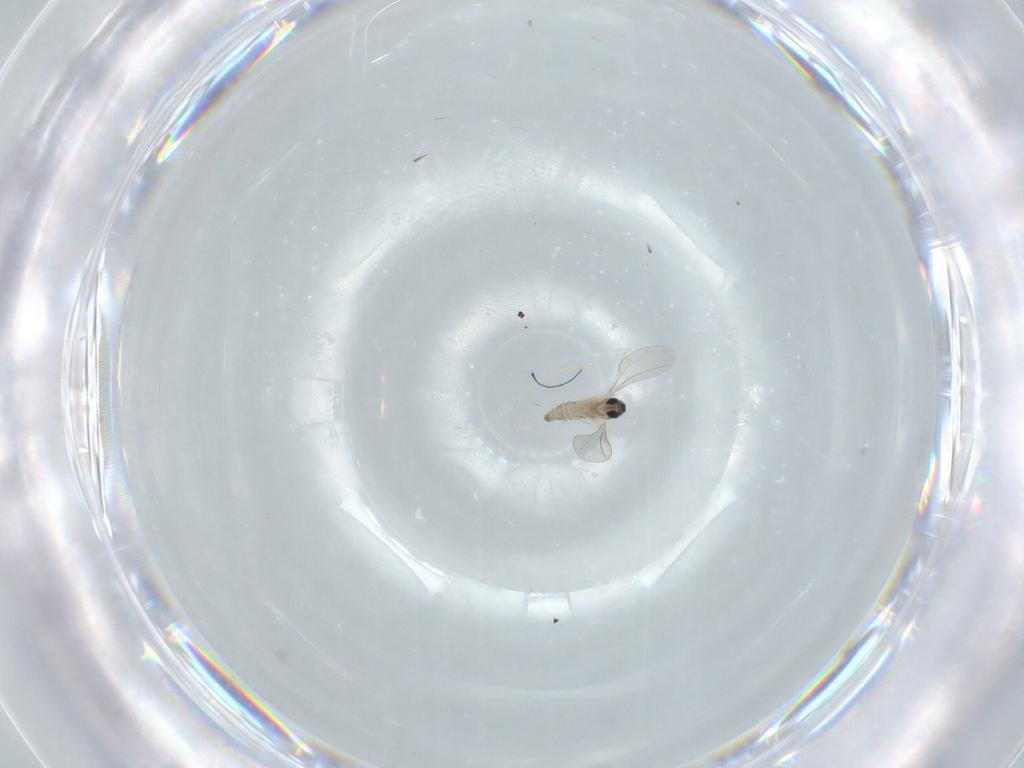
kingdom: Animalia
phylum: Arthropoda
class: Insecta
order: Diptera
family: Cecidomyiidae
